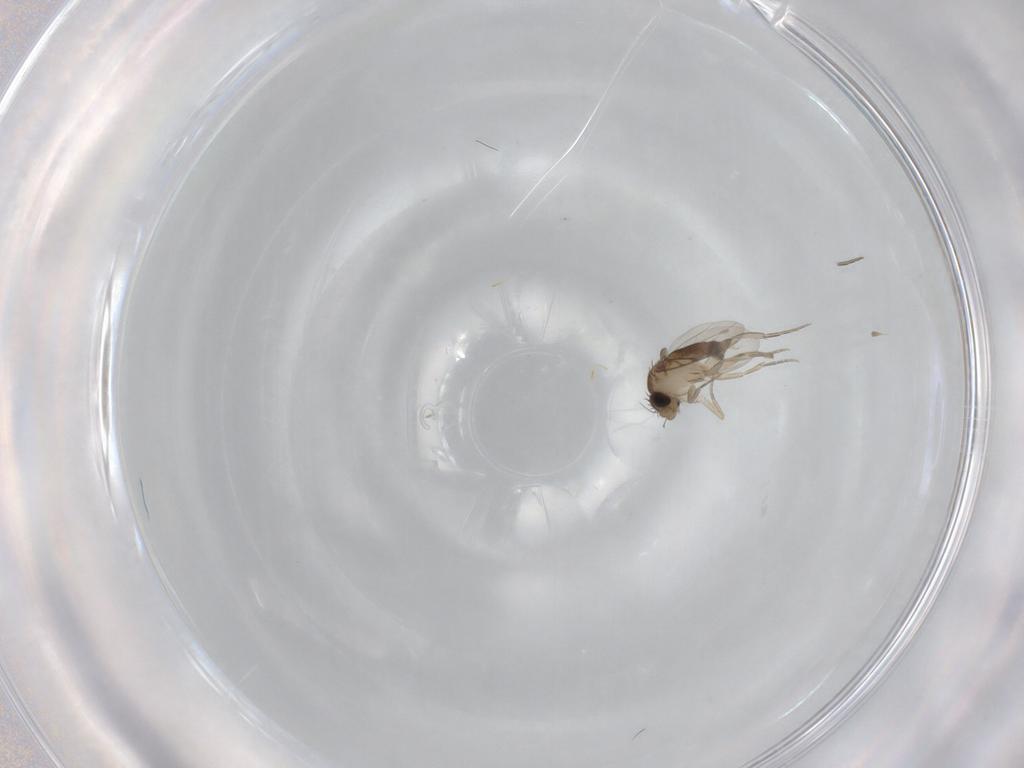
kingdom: Animalia
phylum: Arthropoda
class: Insecta
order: Diptera
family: Phoridae
